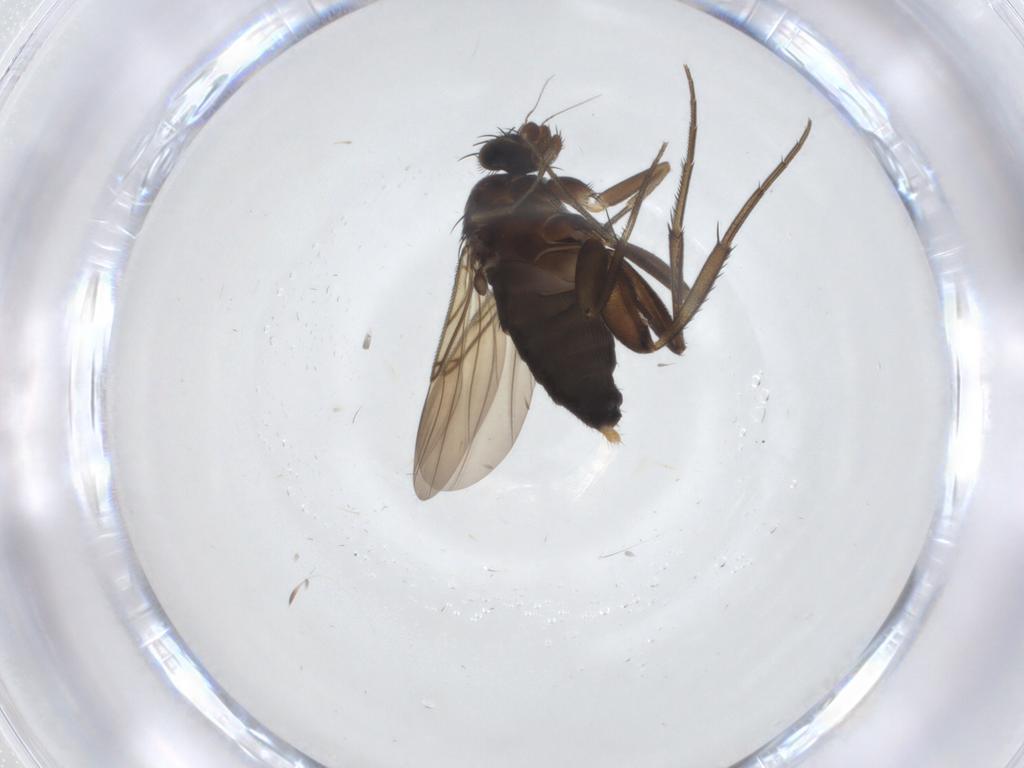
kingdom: Animalia
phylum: Arthropoda
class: Insecta
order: Diptera
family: Phoridae
